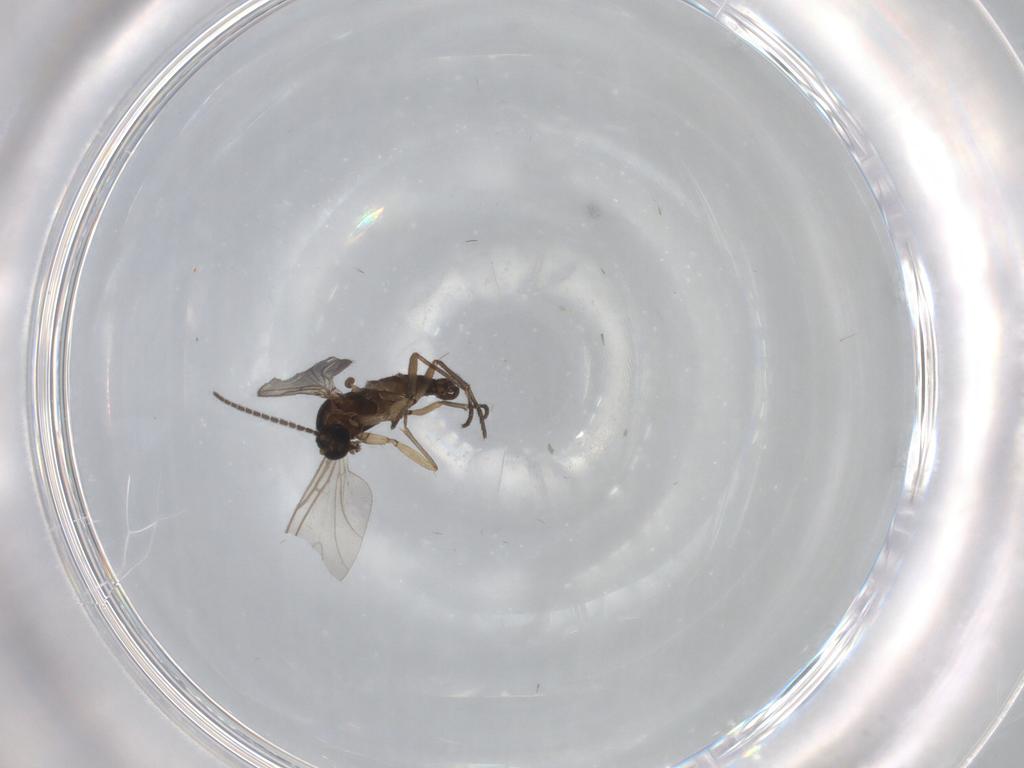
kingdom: Animalia
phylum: Arthropoda
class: Insecta
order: Diptera
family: Sciaridae
